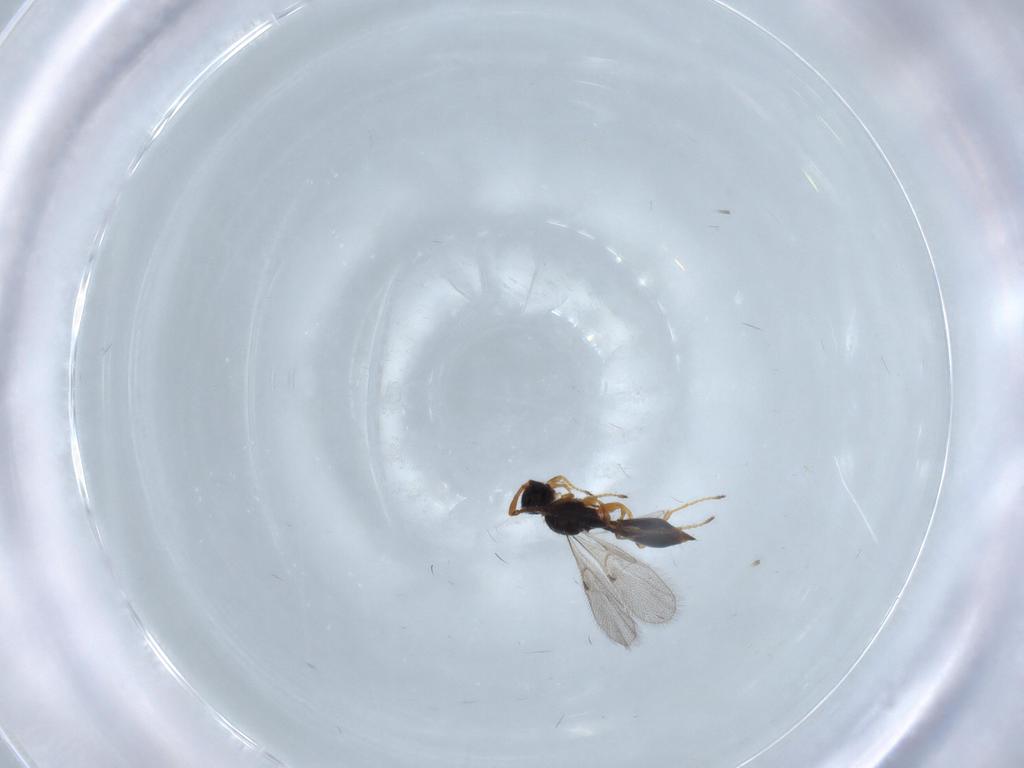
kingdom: Animalia
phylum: Arthropoda
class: Insecta
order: Hymenoptera
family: Diapriidae
